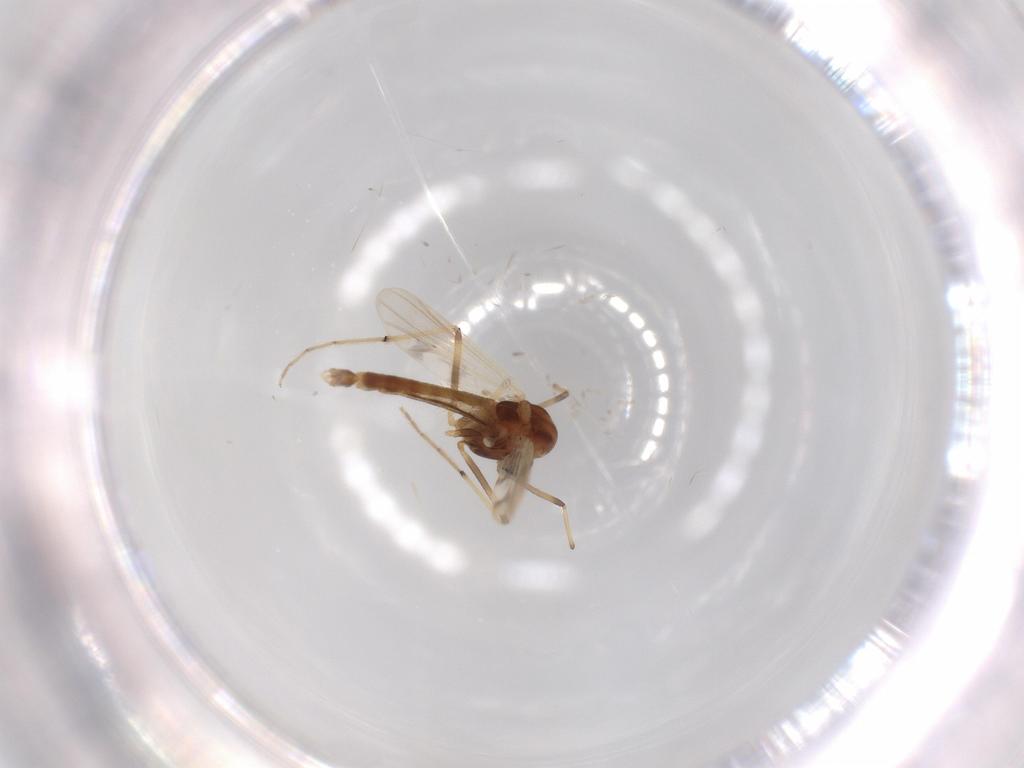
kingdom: Animalia
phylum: Arthropoda
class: Insecta
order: Diptera
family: Chironomidae
